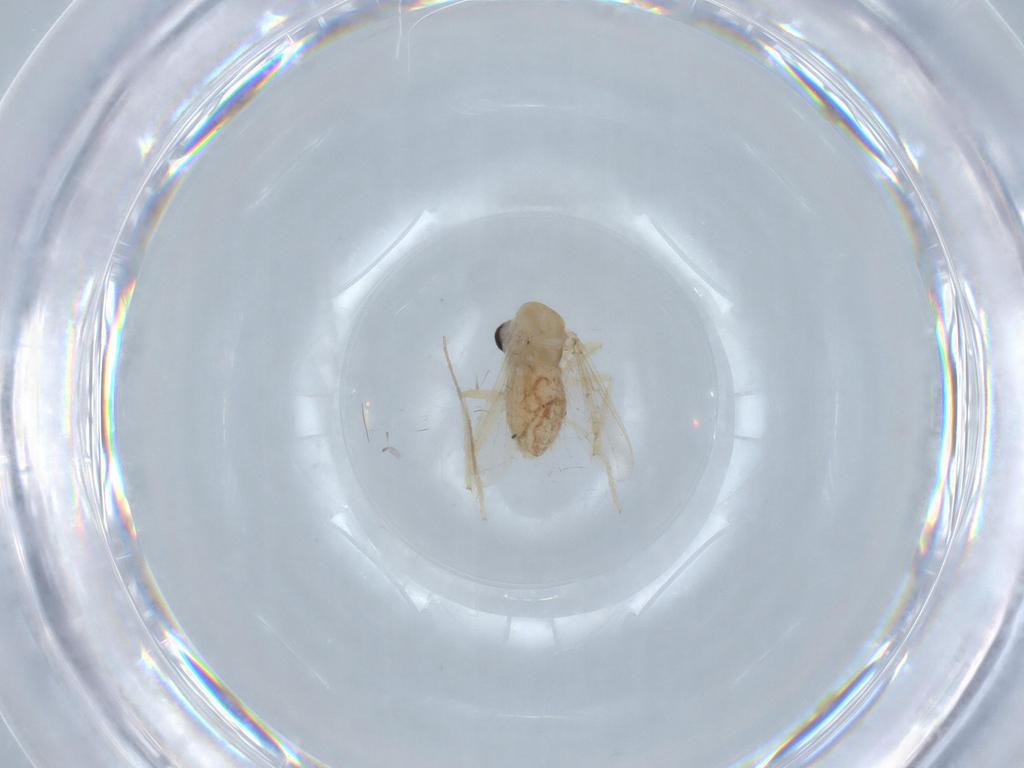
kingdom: Animalia
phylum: Arthropoda
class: Insecta
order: Diptera
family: Chironomidae
